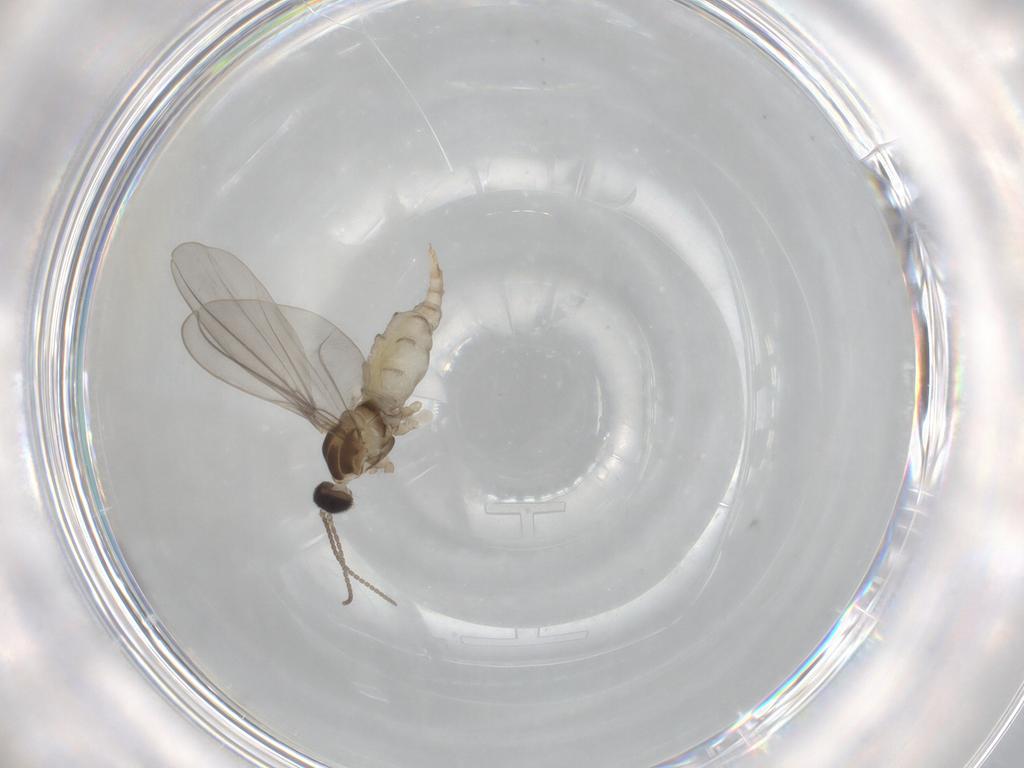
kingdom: Animalia
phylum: Arthropoda
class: Insecta
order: Diptera
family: Cecidomyiidae
